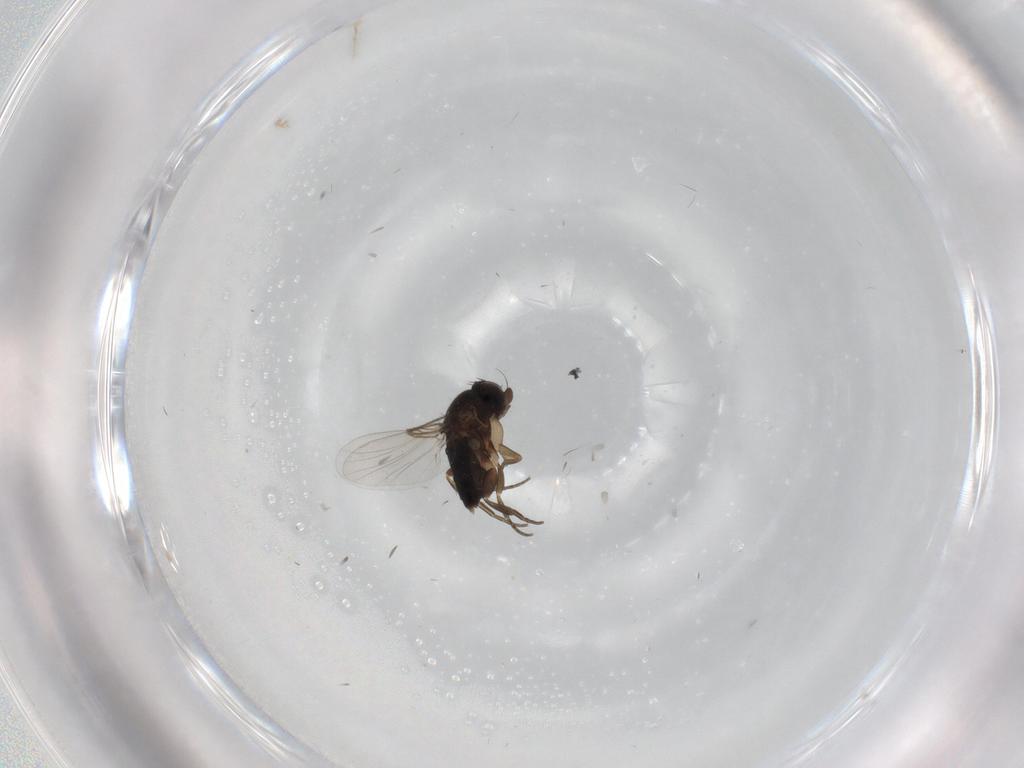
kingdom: Animalia
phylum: Arthropoda
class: Insecta
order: Diptera
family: Phoridae
